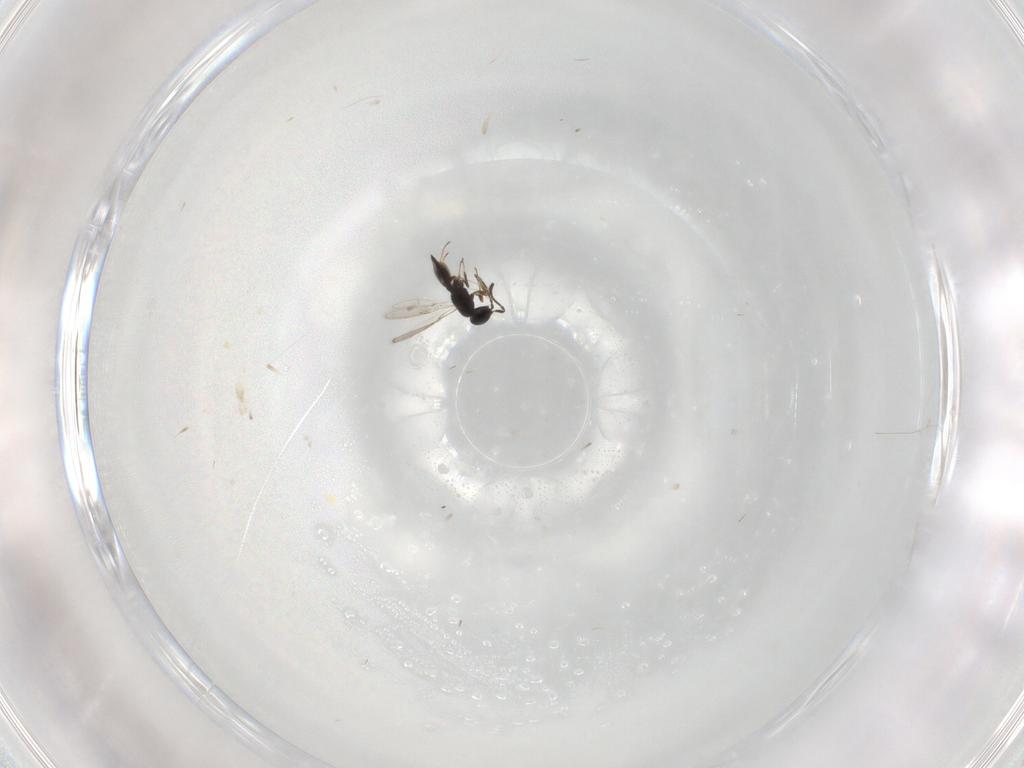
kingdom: Animalia
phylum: Arthropoda
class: Insecta
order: Hymenoptera
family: Scelionidae
